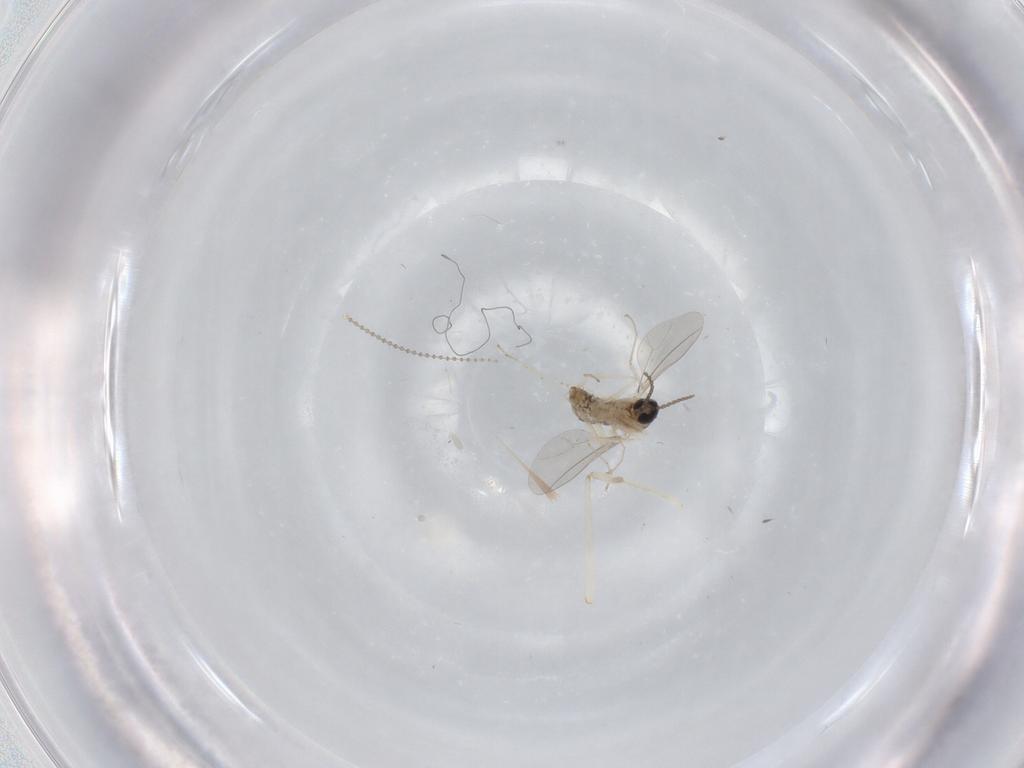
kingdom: Animalia
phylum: Arthropoda
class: Insecta
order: Diptera
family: Cecidomyiidae
